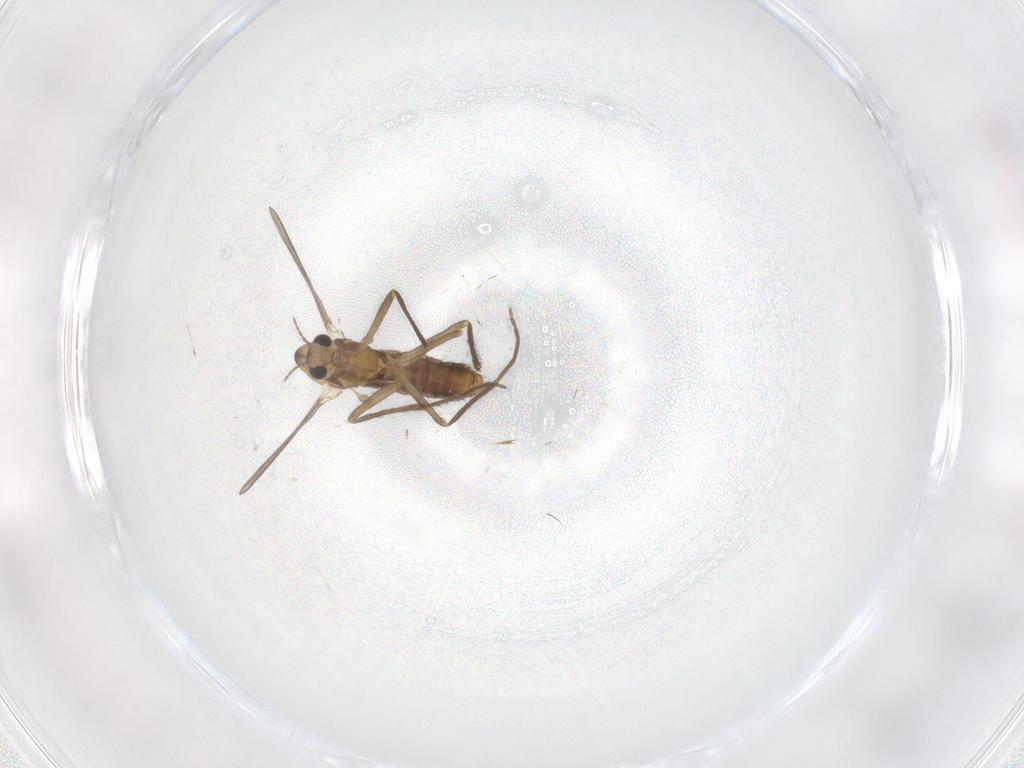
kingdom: Animalia
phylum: Arthropoda
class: Insecta
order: Diptera
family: Chironomidae
